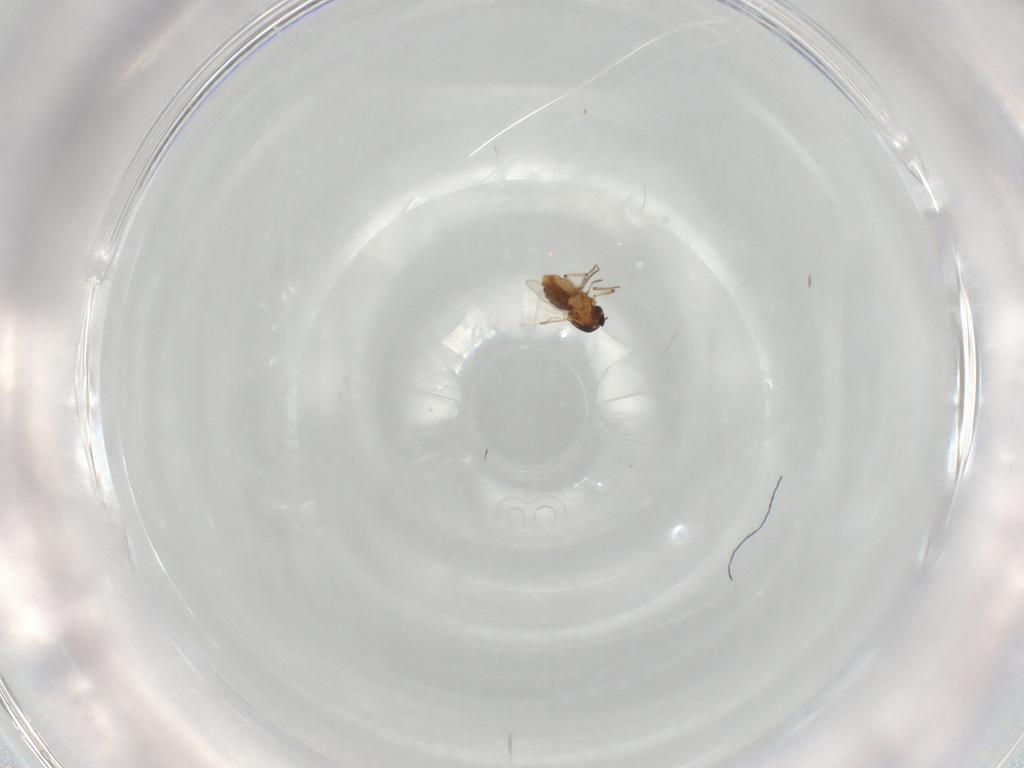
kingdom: Animalia
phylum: Arthropoda
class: Insecta
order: Diptera
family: Ceratopogonidae
